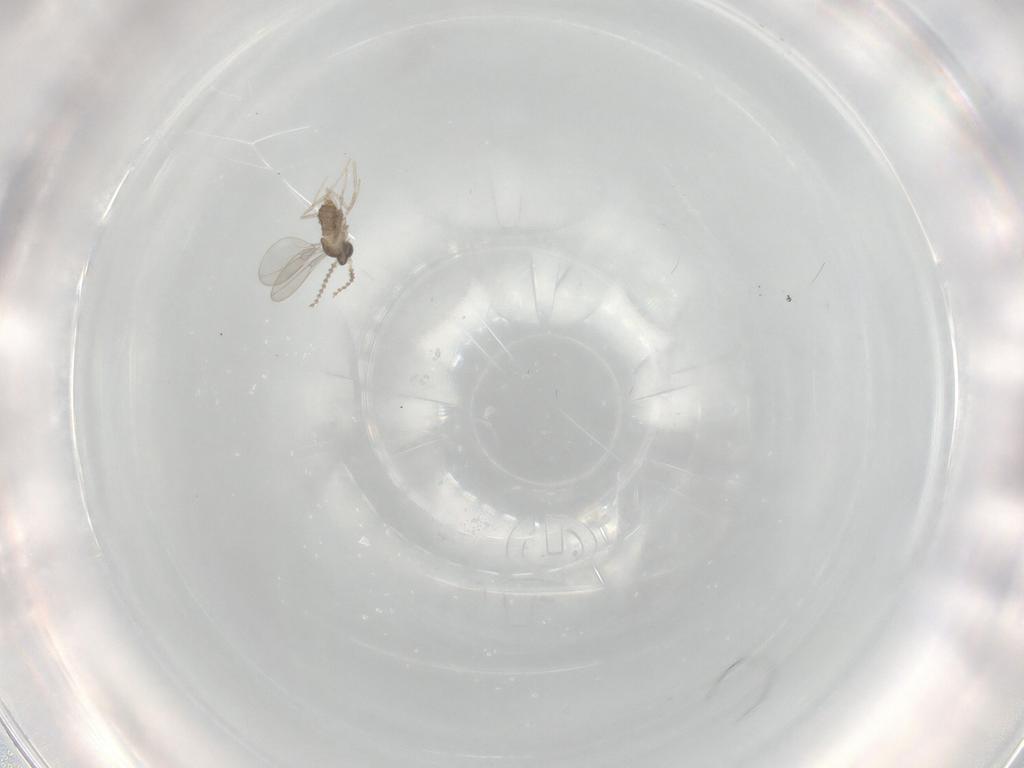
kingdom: Animalia
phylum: Arthropoda
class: Insecta
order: Diptera
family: Cecidomyiidae
